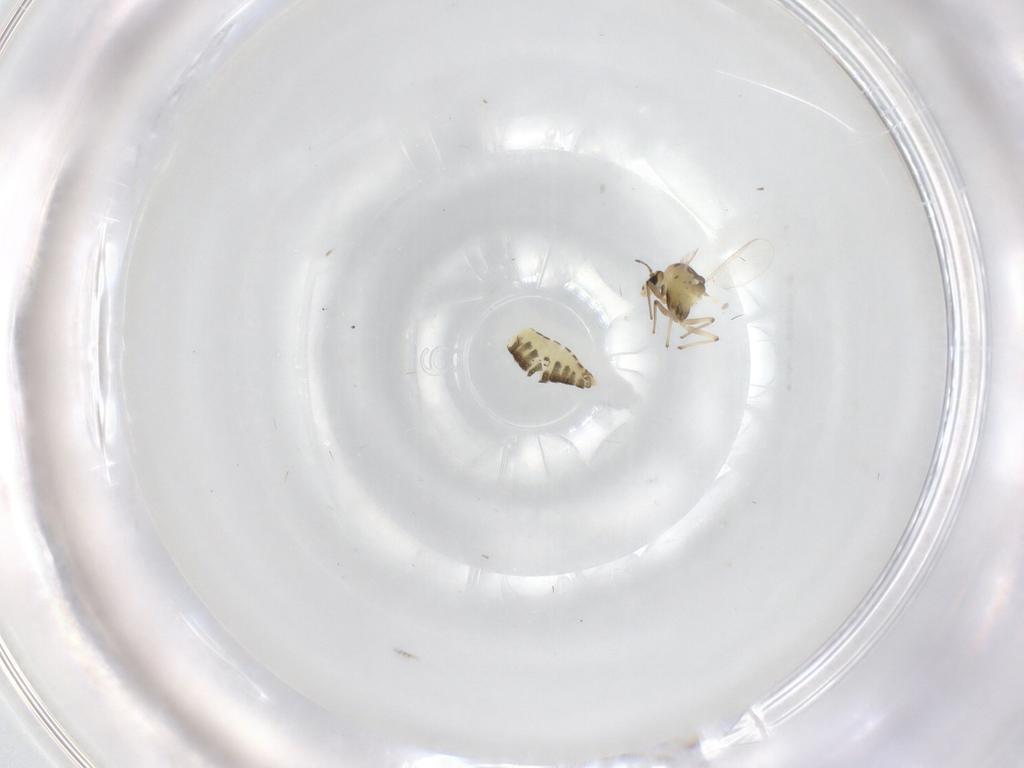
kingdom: Animalia
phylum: Arthropoda
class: Insecta
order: Diptera
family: Chironomidae
